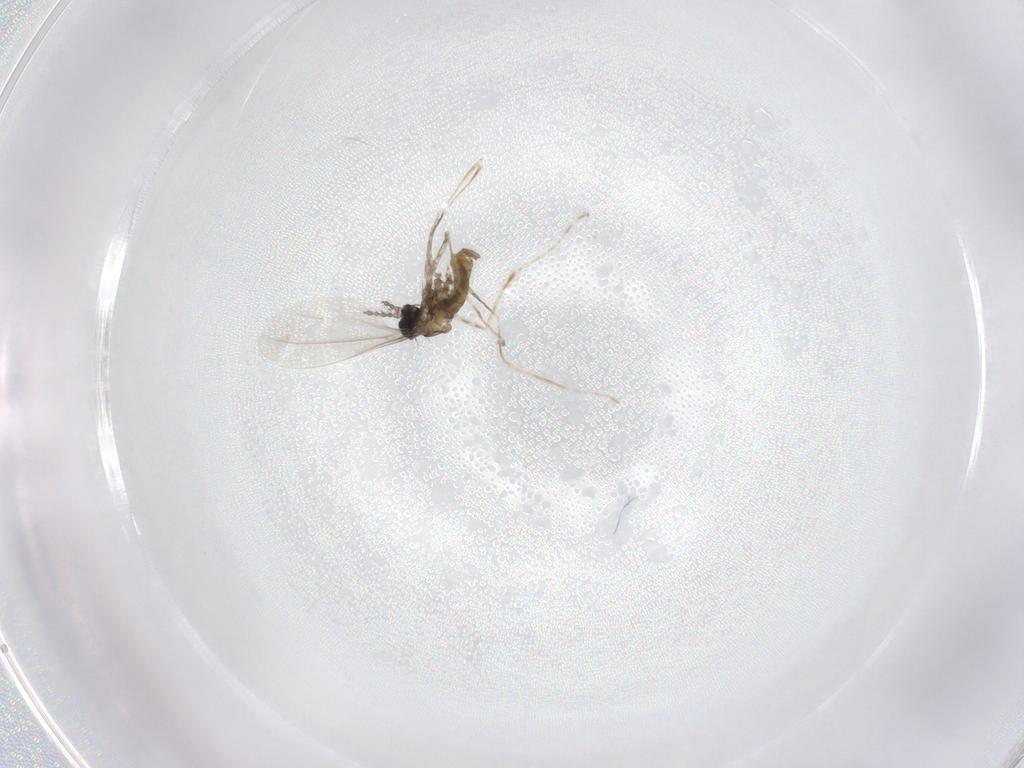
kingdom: Animalia
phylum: Arthropoda
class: Insecta
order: Diptera
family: Cecidomyiidae
